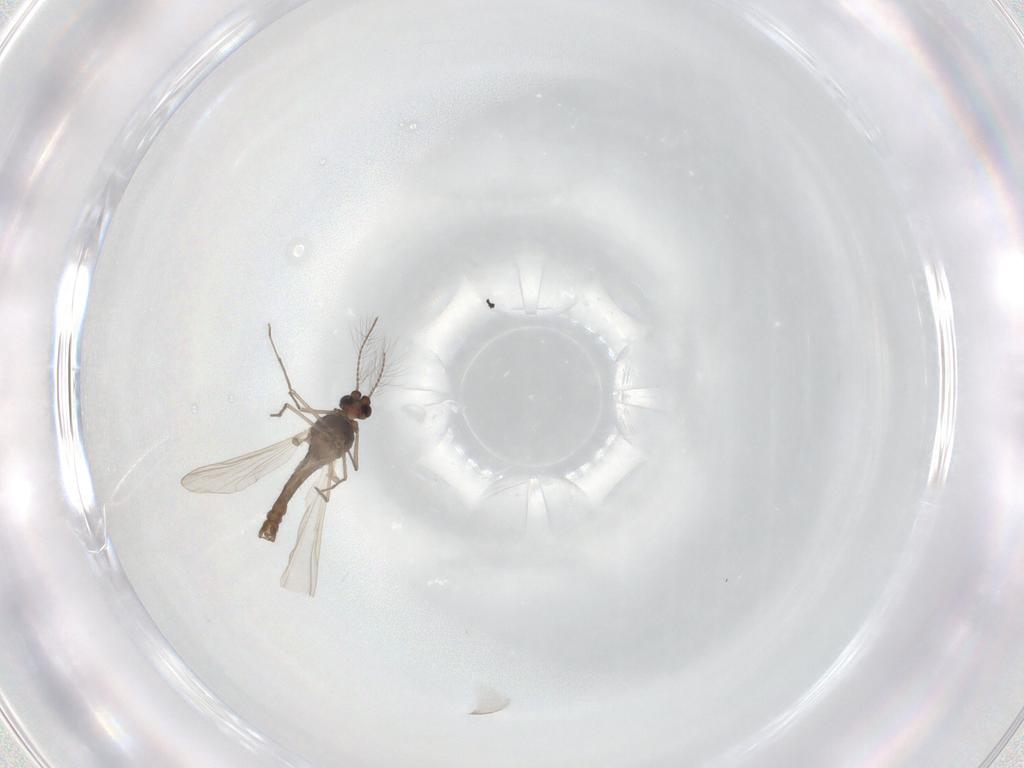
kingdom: Animalia
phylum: Arthropoda
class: Insecta
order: Diptera
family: Chironomidae
